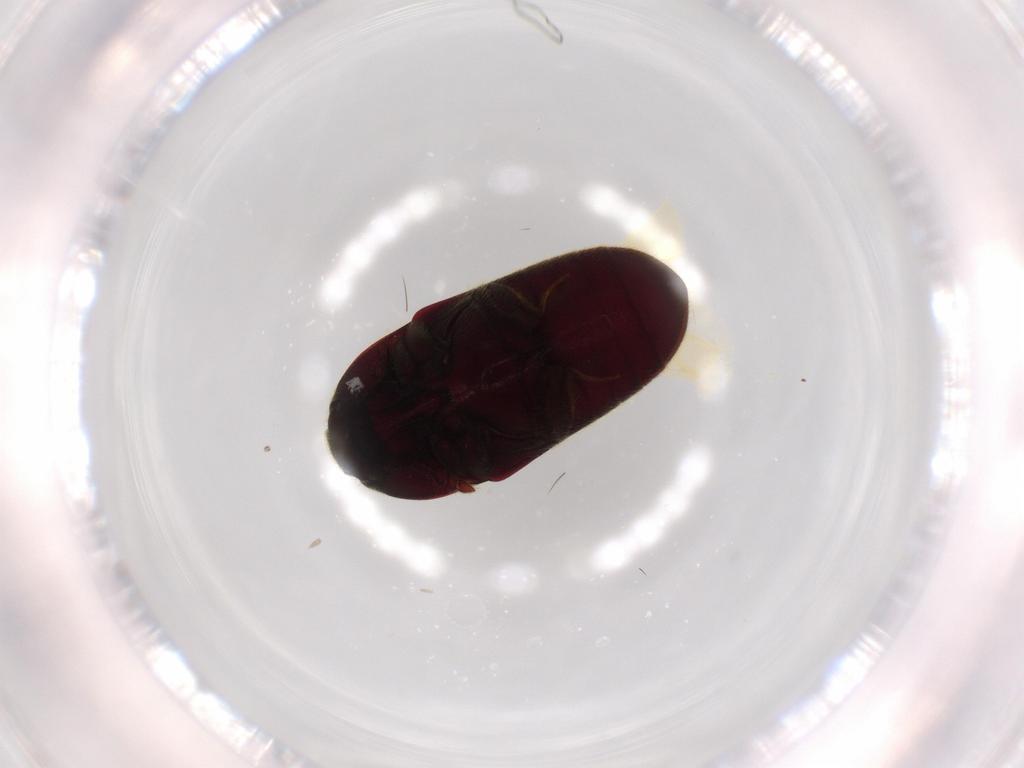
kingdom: Animalia
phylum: Arthropoda
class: Insecta
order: Coleoptera
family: Throscidae
